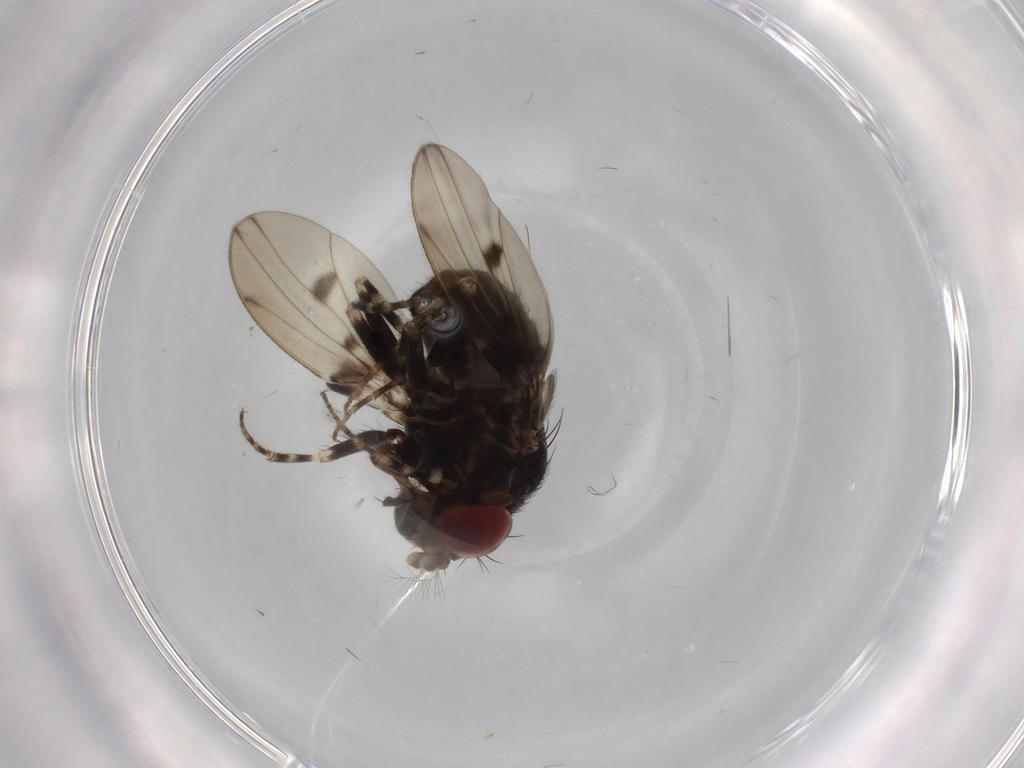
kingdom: Animalia
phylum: Arthropoda
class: Insecta
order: Diptera
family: Drosophilidae
